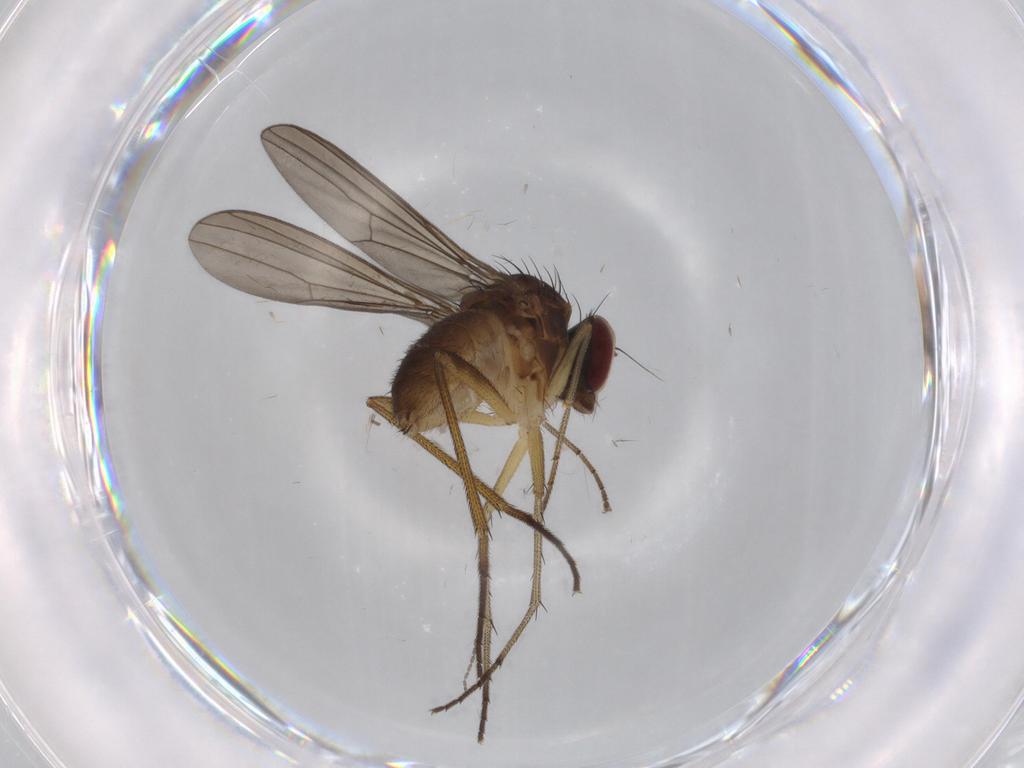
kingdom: Animalia
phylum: Arthropoda
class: Insecta
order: Diptera
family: Dolichopodidae
